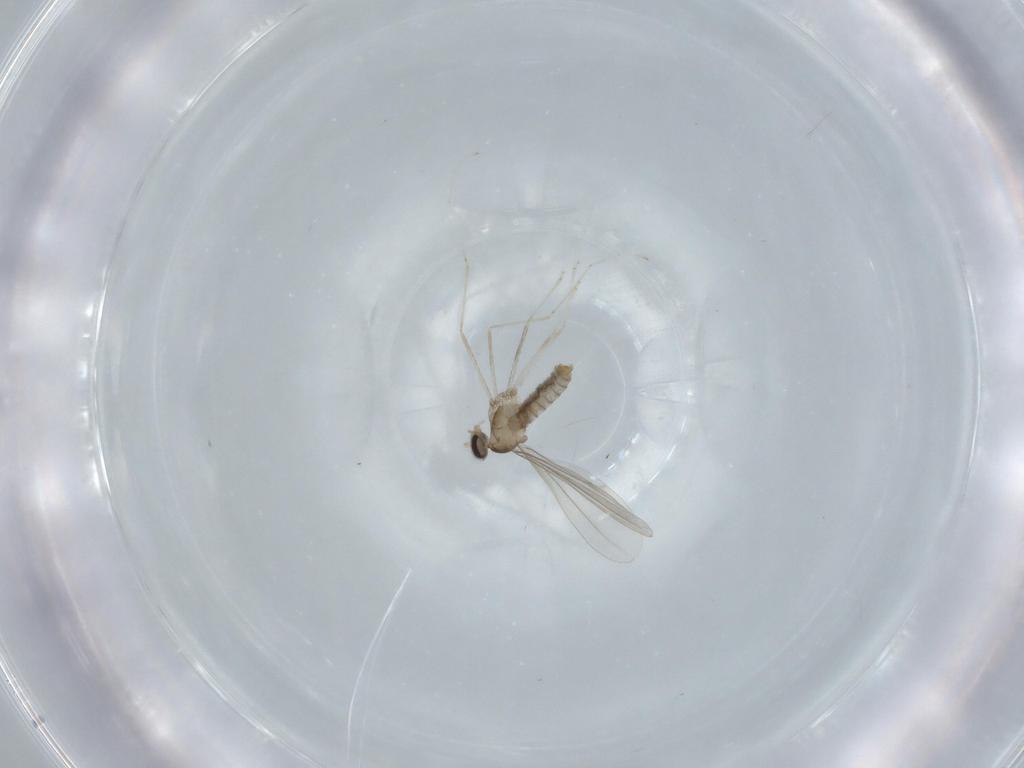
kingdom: Animalia
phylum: Arthropoda
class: Insecta
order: Diptera
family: Cecidomyiidae
